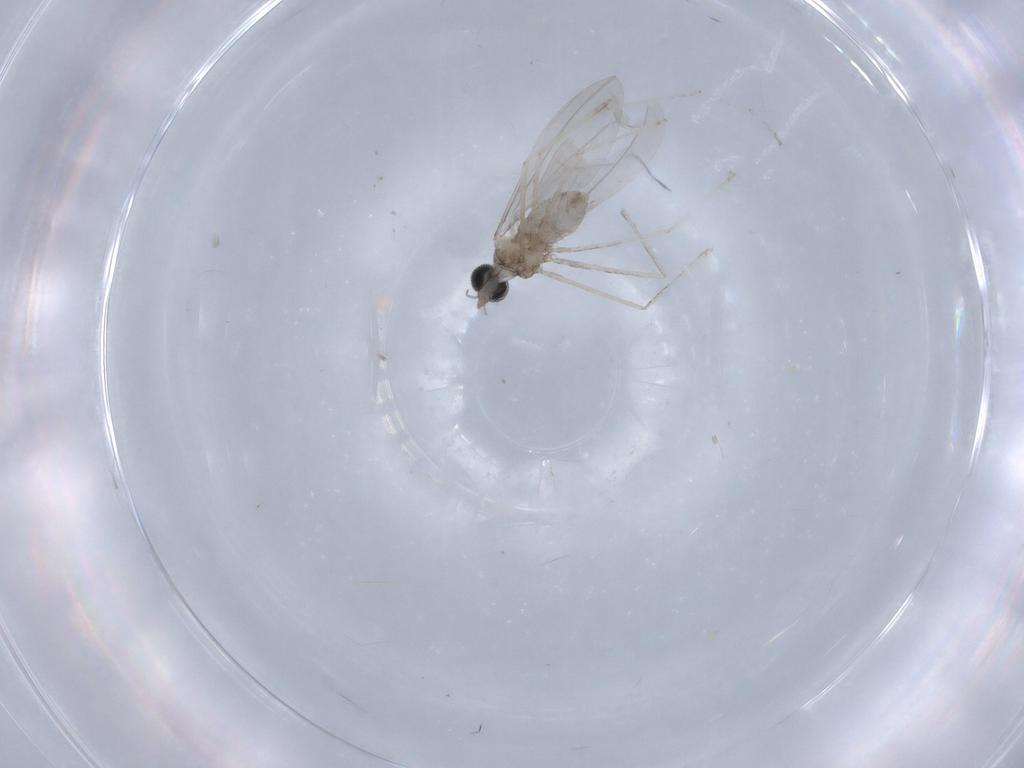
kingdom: Animalia
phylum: Arthropoda
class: Insecta
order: Diptera
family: Cecidomyiidae
